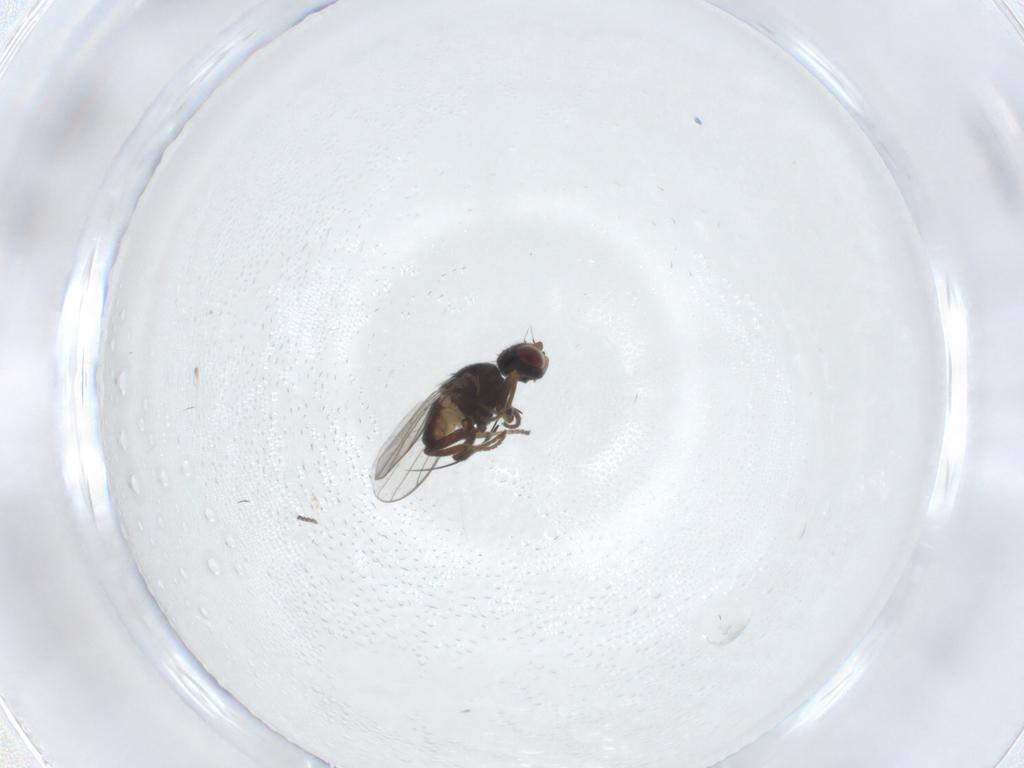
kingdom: Animalia
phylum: Arthropoda
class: Insecta
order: Diptera
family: Chloropidae
